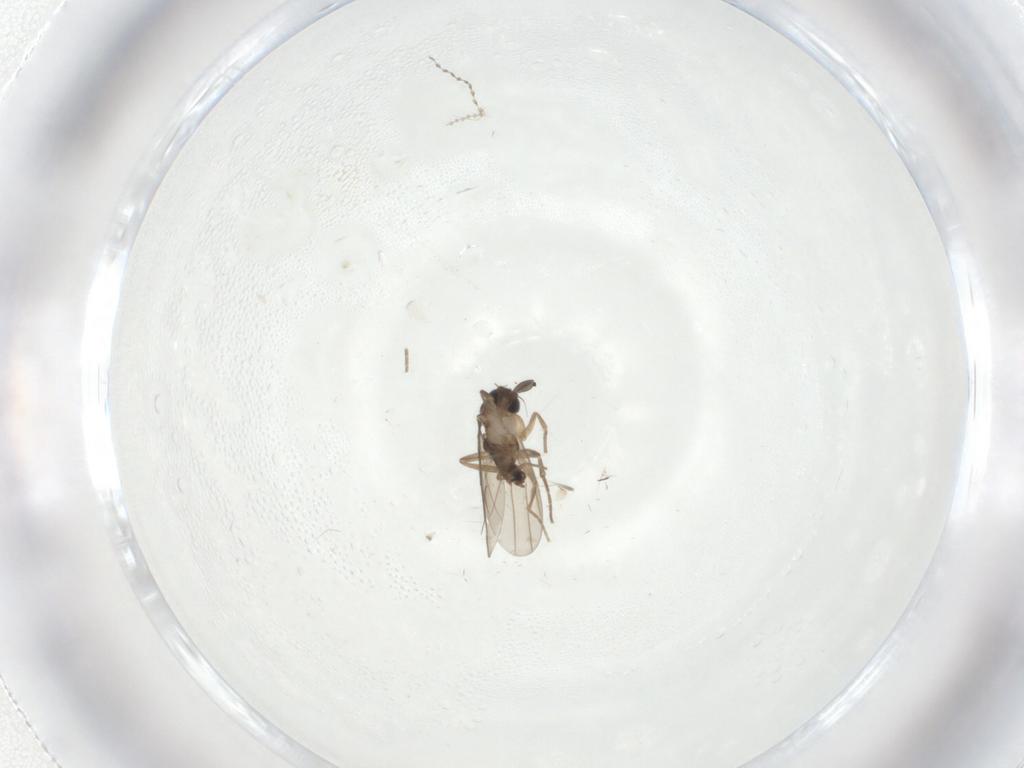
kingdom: Animalia
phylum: Arthropoda
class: Insecta
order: Diptera
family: Phoridae
